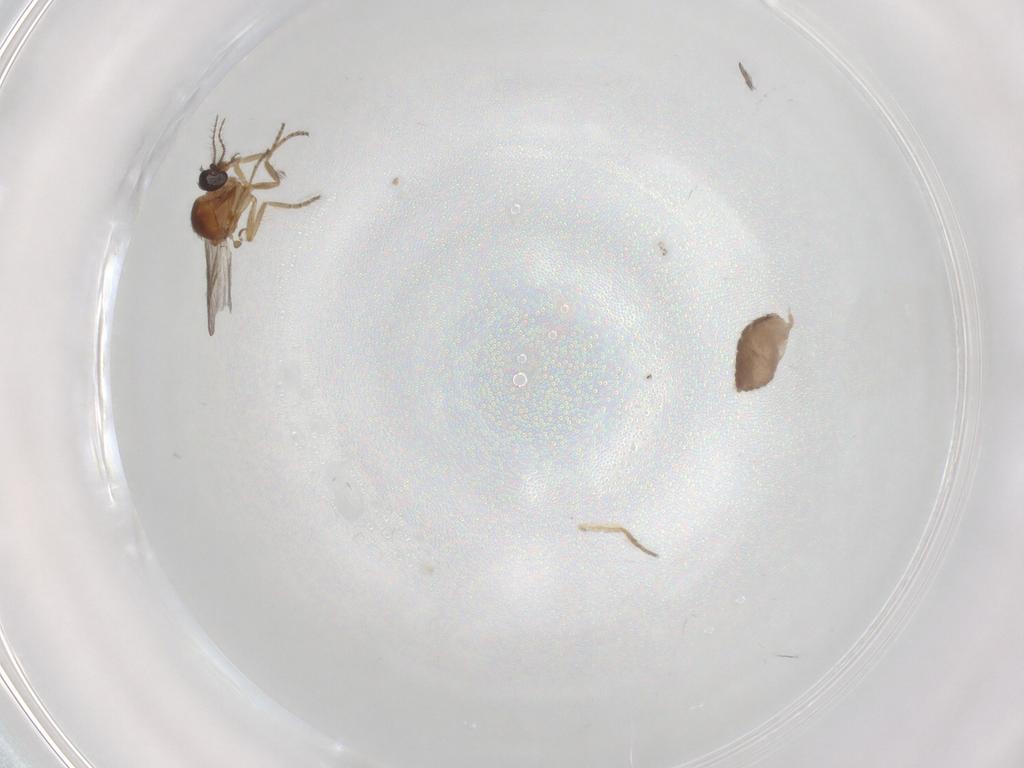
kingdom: Animalia
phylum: Arthropoda
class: Insecta
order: Diptera
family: Ceratopogonidae
